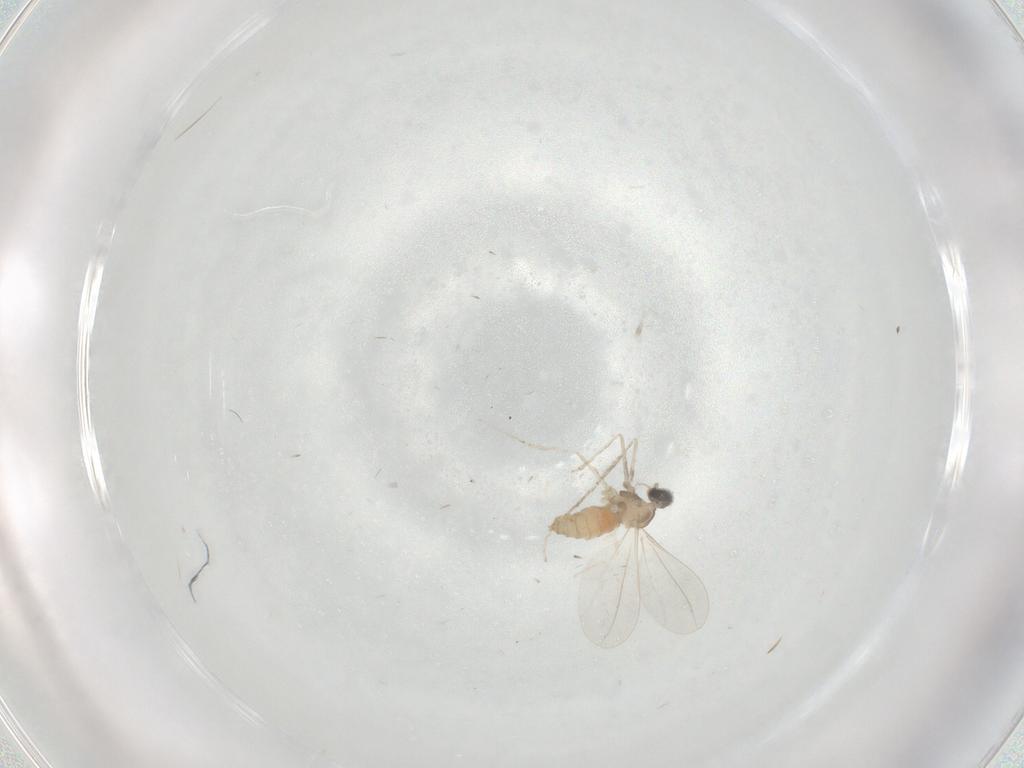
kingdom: Animalia
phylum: Arthropoda
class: Insecta
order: Diptera
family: Cecidomyiidae
